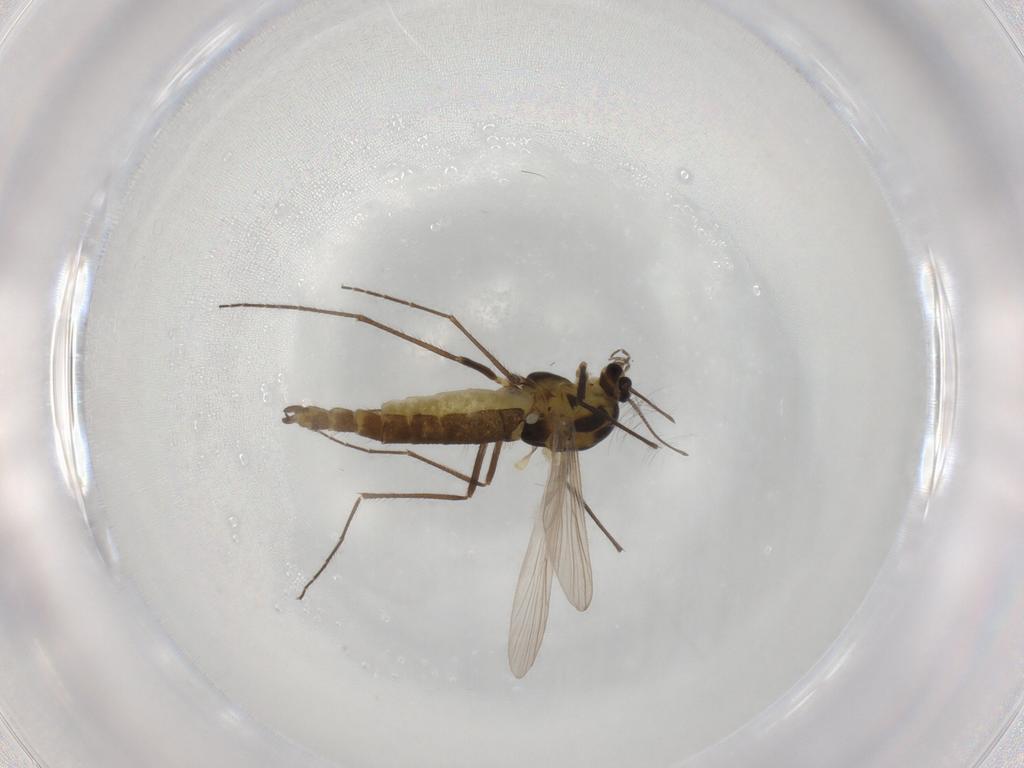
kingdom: Animalia
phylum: Arthropoda
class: Insecta
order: Diptera
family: Chironomidae
